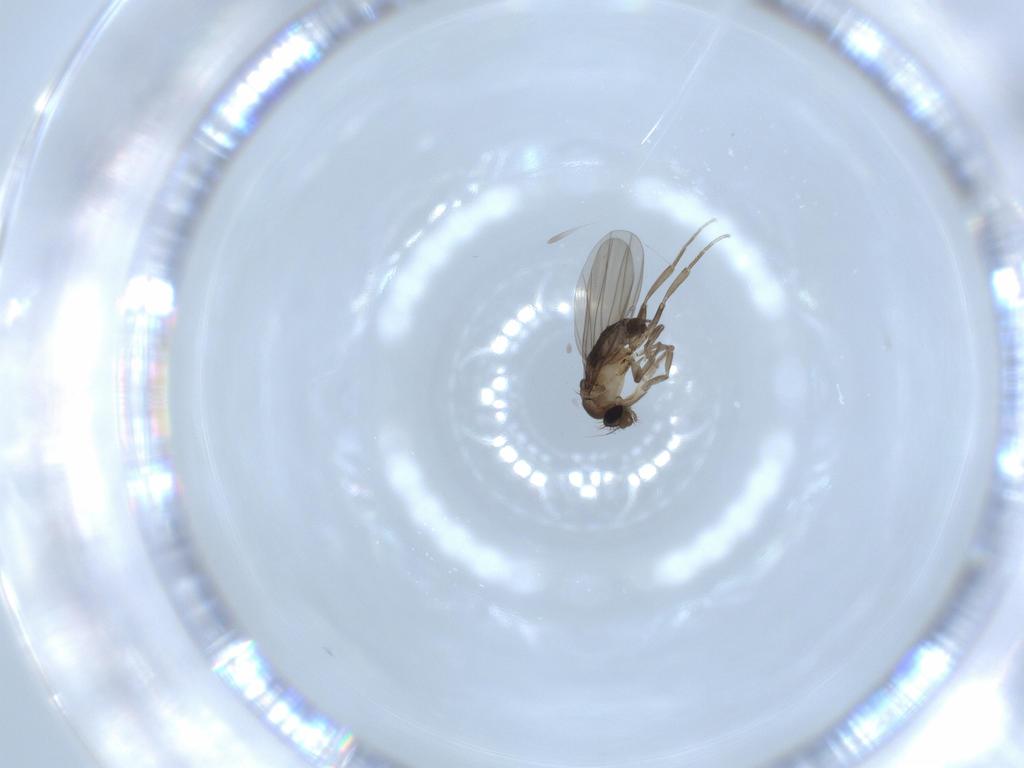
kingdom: Animalia
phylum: Arthropoda
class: Insecta
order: Diptera
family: Phoridae
